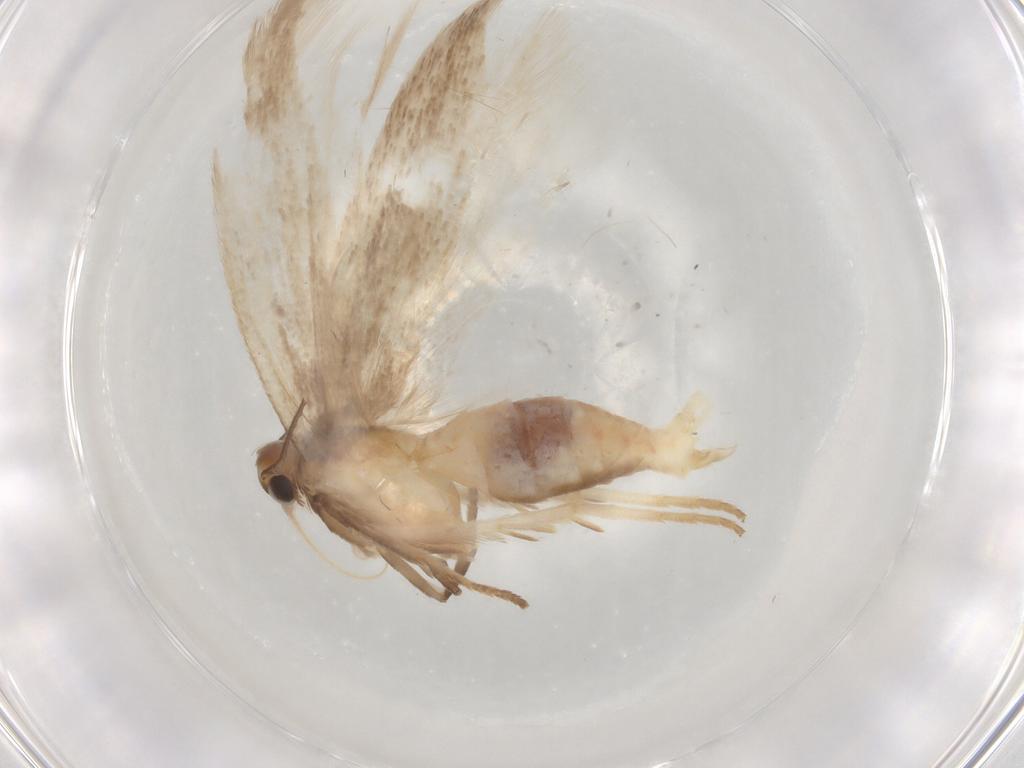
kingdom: Animalia
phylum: Arthropoda
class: Insecta
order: Lepidoptera
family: Gelechiidae
